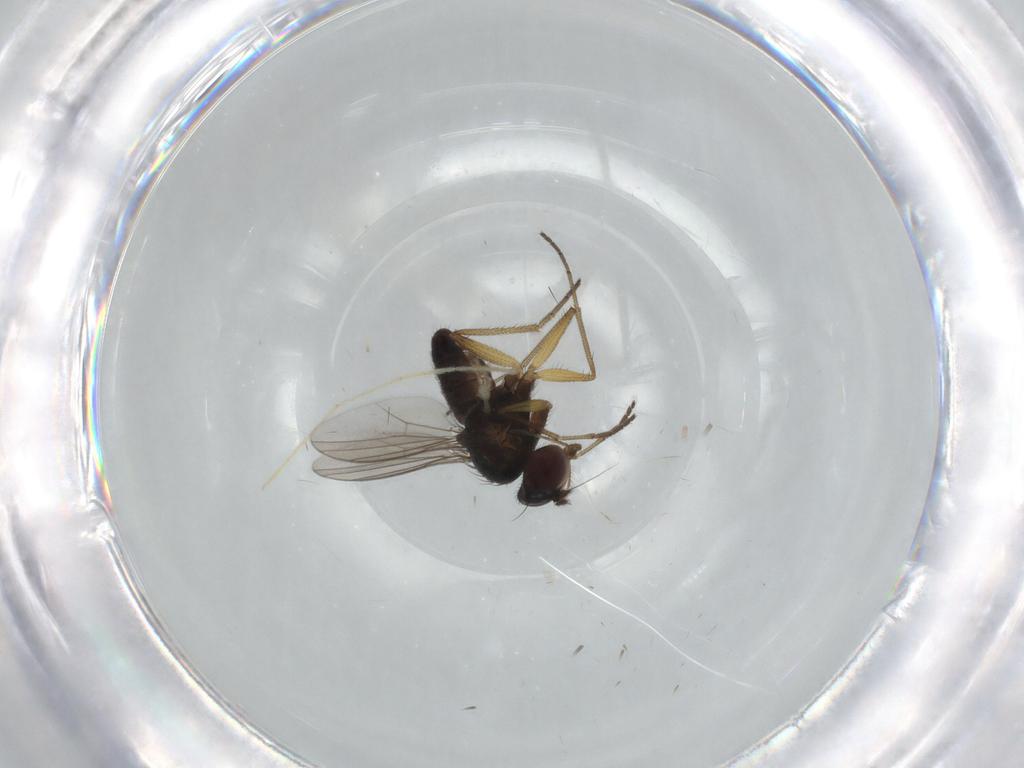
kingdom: Animalia
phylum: Arthropoda
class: Insecta
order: Diptera
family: Dolichopodidae
